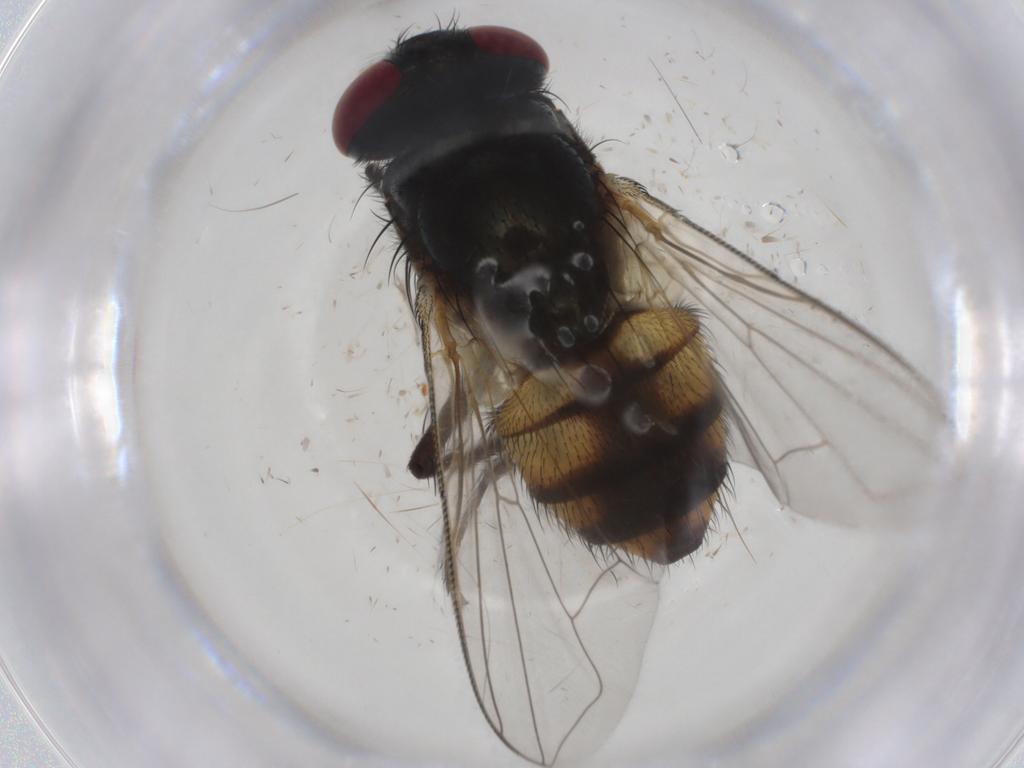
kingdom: Animalia
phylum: Arthropoda
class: Insecta
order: Diptera
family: Muscidae
